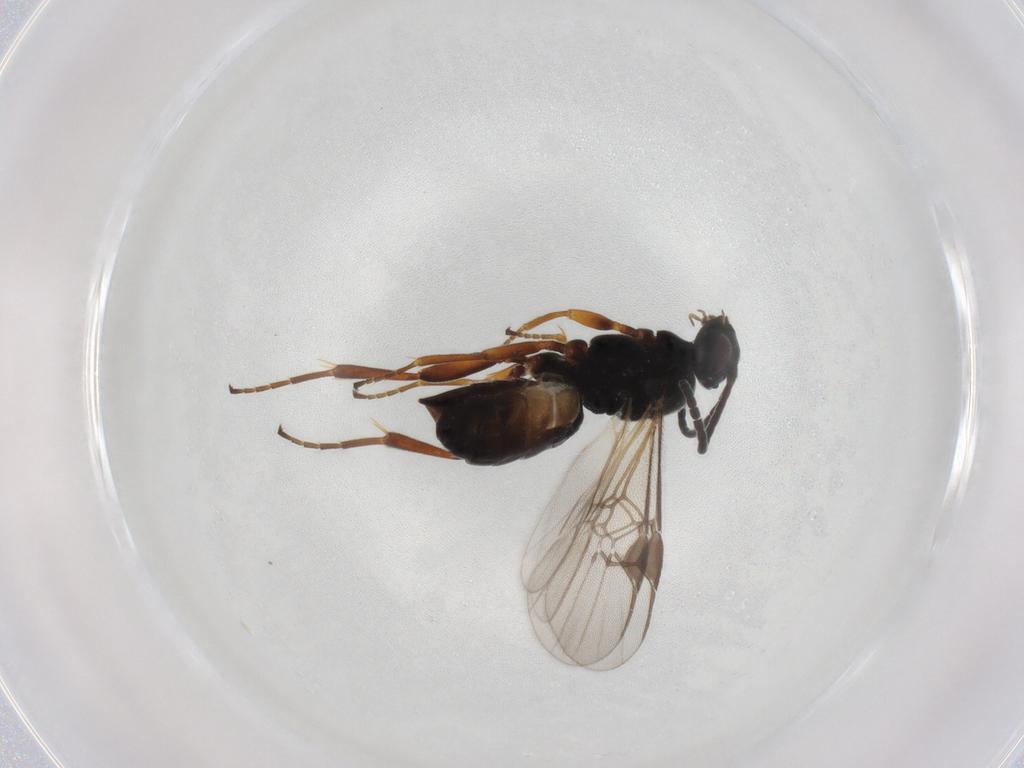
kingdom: Animalia
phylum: Arthropoda
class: Insecta
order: Hymenoptera
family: Braconidae
